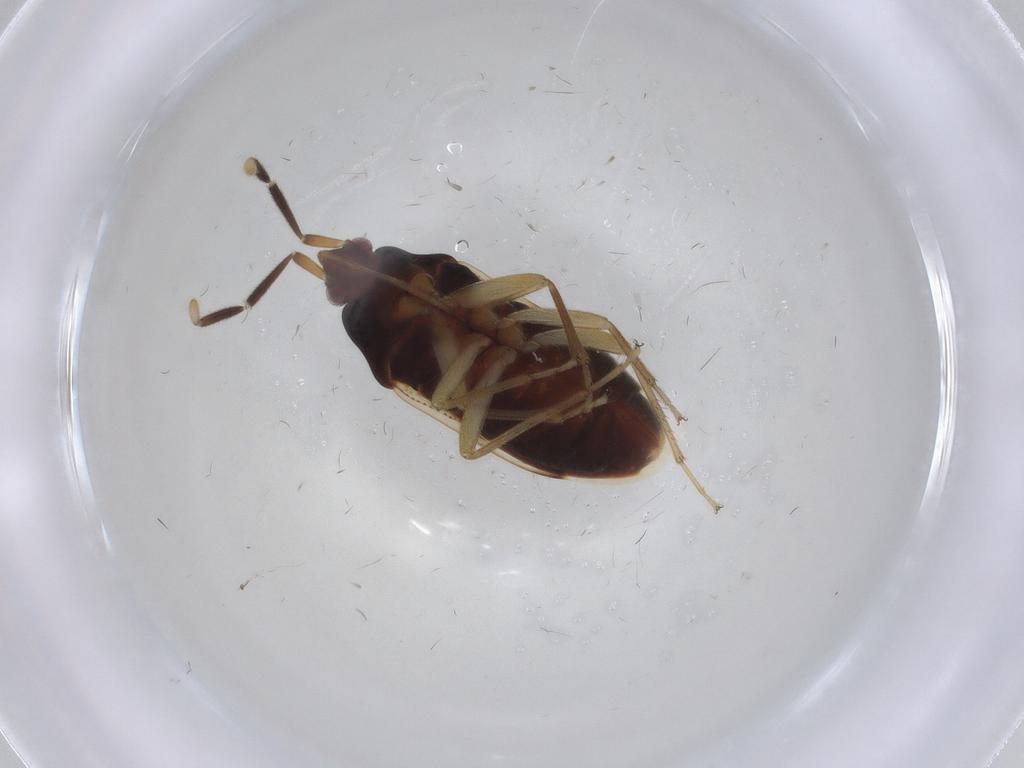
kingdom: Animalia
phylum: Arthropoda
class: Insecta
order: Hemiptera
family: Rhyparochromidae
